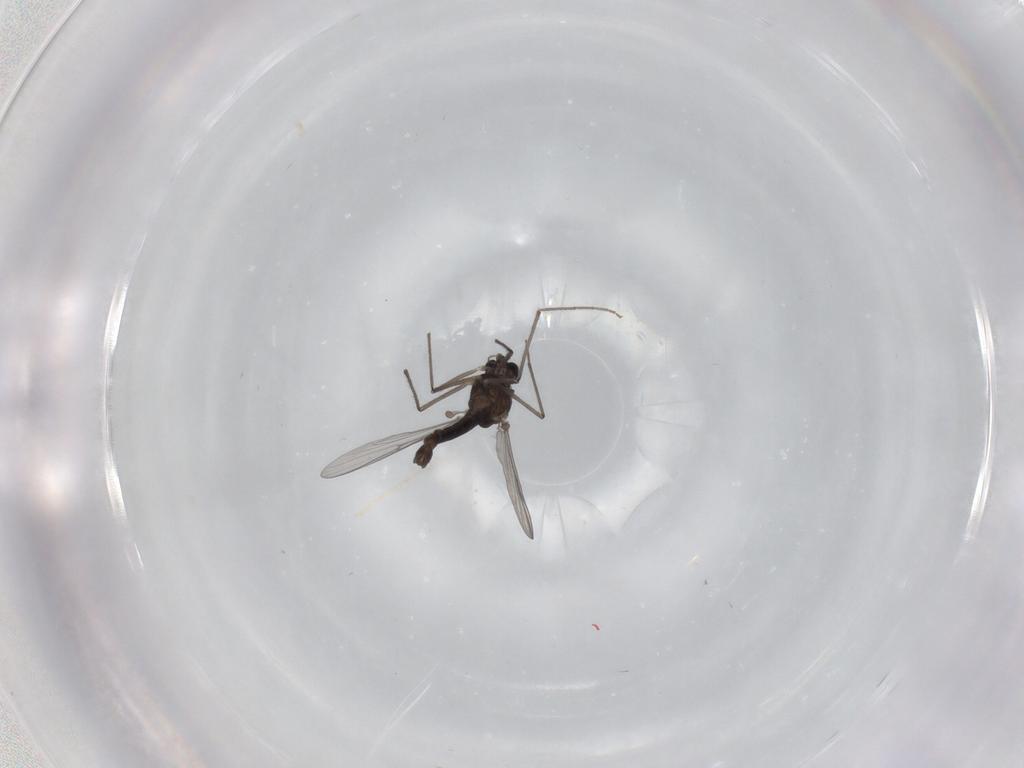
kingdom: Animalia
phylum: Arthropoda
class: Insecta
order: Diptera
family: Chironomidae
